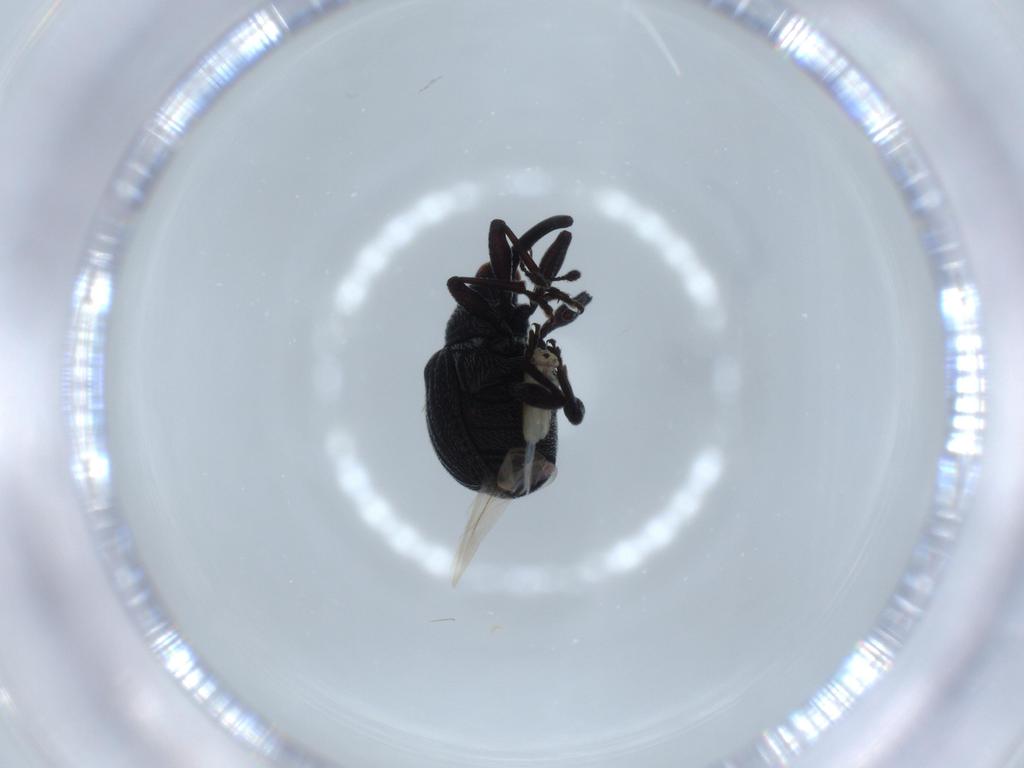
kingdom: Animalia
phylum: Arthropoda
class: Insecta
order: Coleoptera
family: Brentidae
